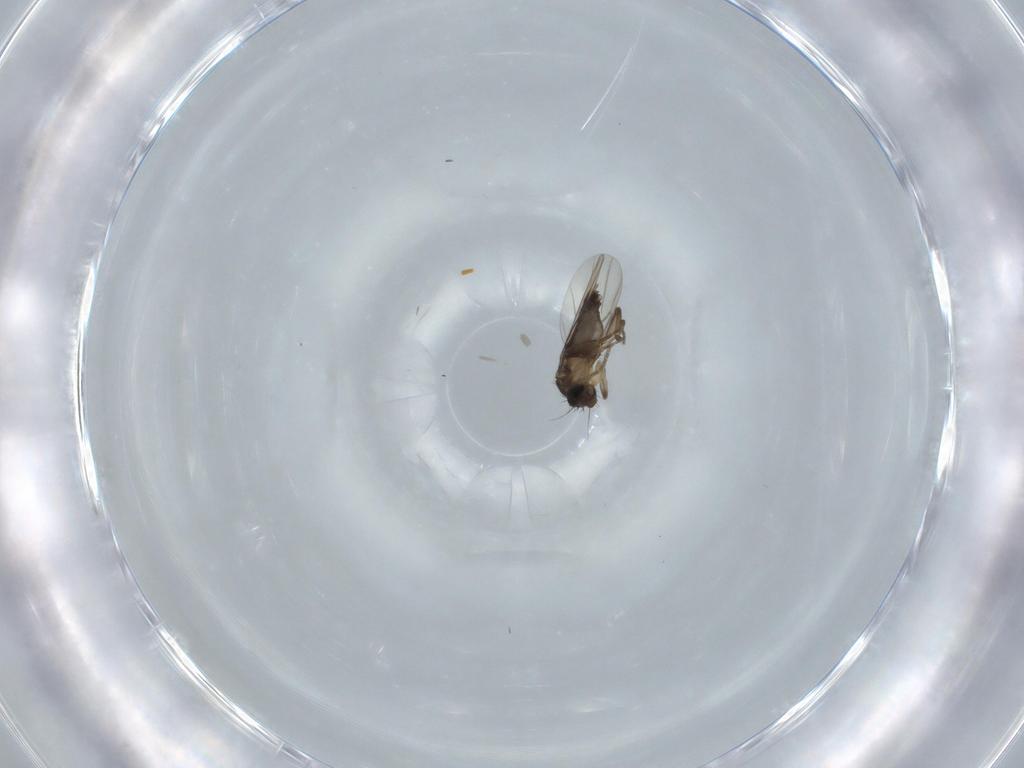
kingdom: Animalia
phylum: Arthropoda
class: Insecta
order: Diptera
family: Phoridae
